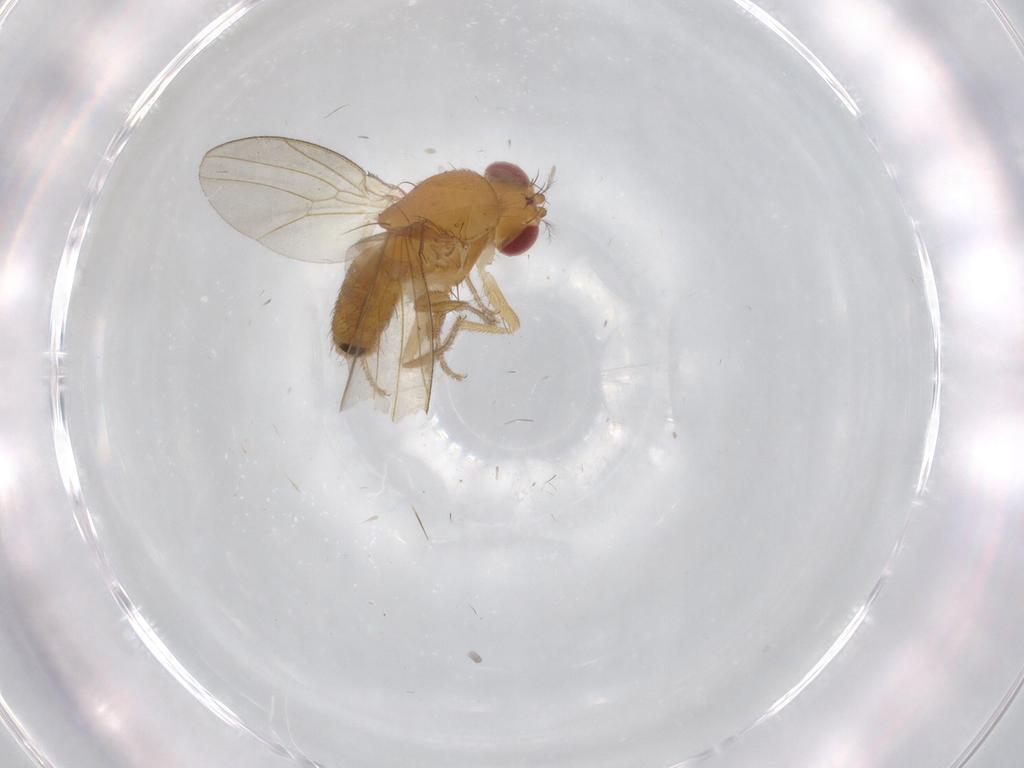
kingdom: Animalia
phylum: Arthropoda
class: Insecta
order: Diptera
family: Drosophilidae
